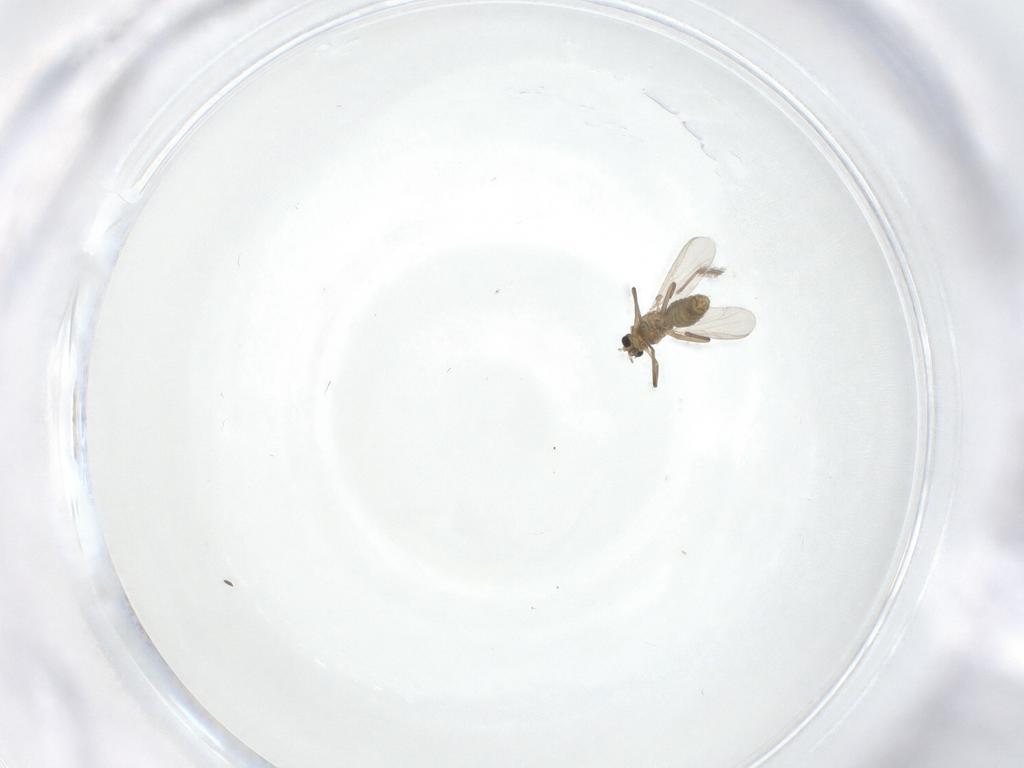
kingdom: Animalia
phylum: Arthropoda
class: Insecta
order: Diptera
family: Chironomidae
